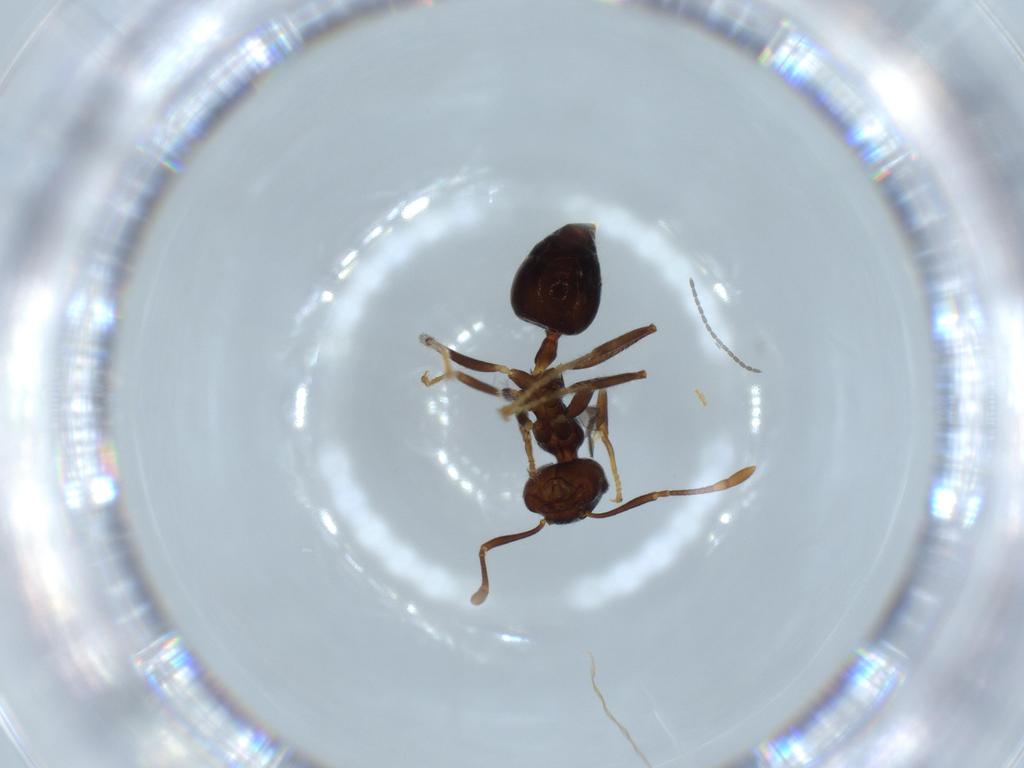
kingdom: Animalia
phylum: Arthropoda
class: Insecta
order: Hymenoptera
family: Formicidae
